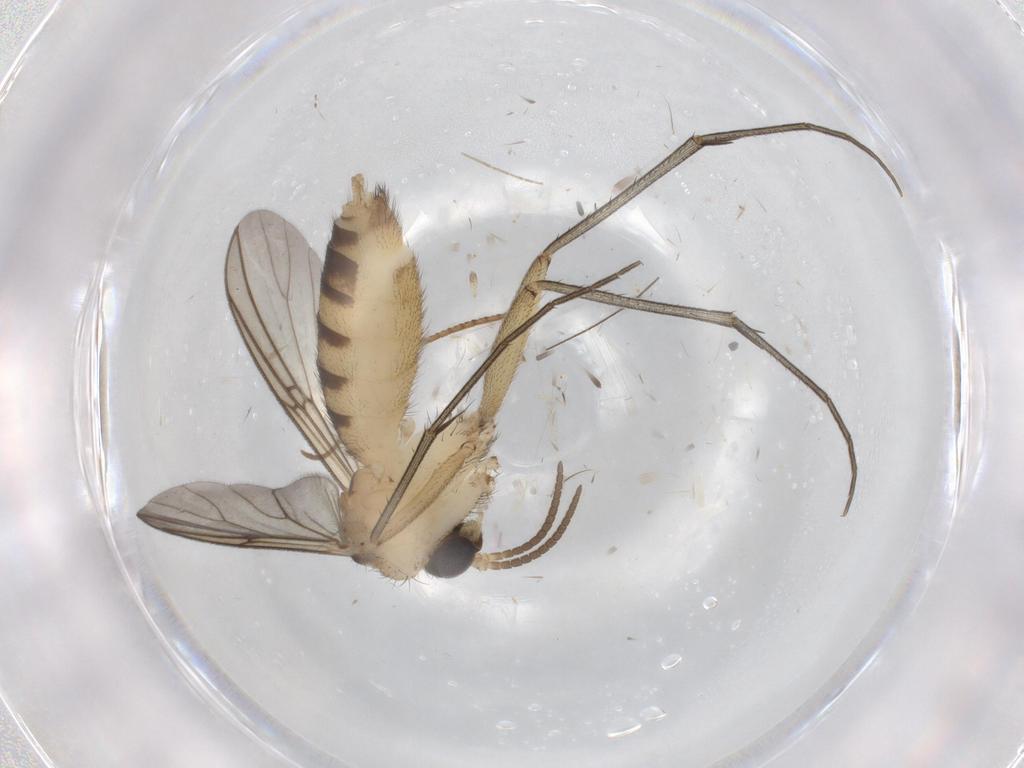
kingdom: Animalia
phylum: Arthropoda
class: Insecta
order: Diptera
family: Mycetophilidae
